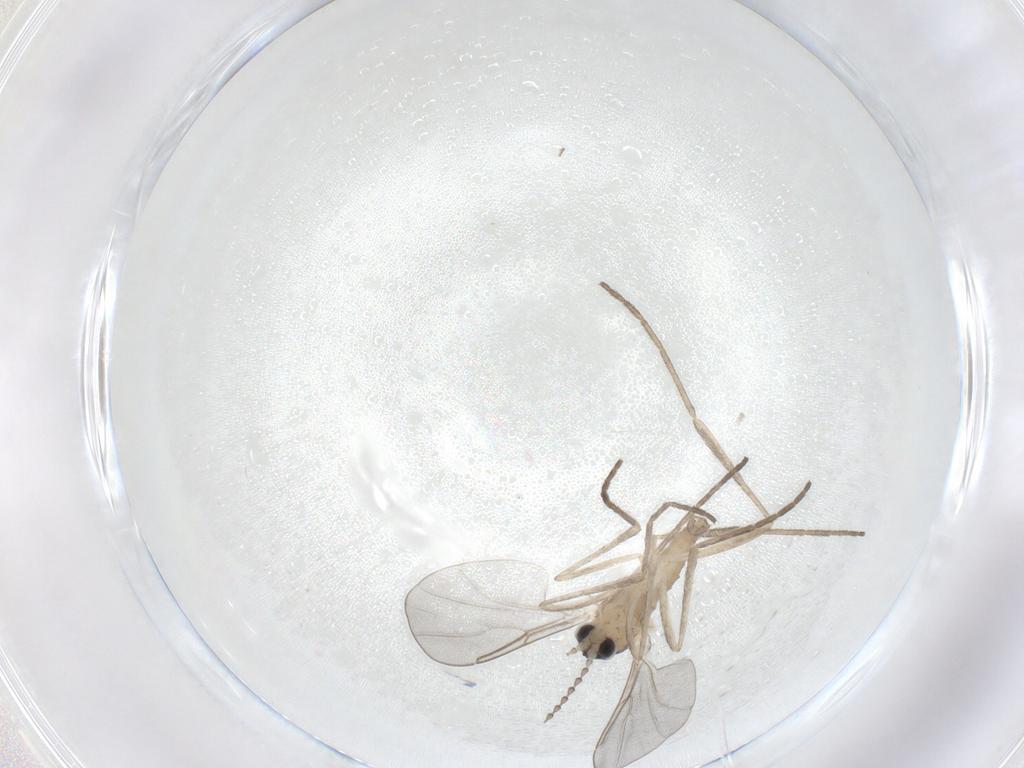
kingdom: Animalia
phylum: Arthropoda
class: Insecta
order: Diptera
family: Cecidomyiidae
